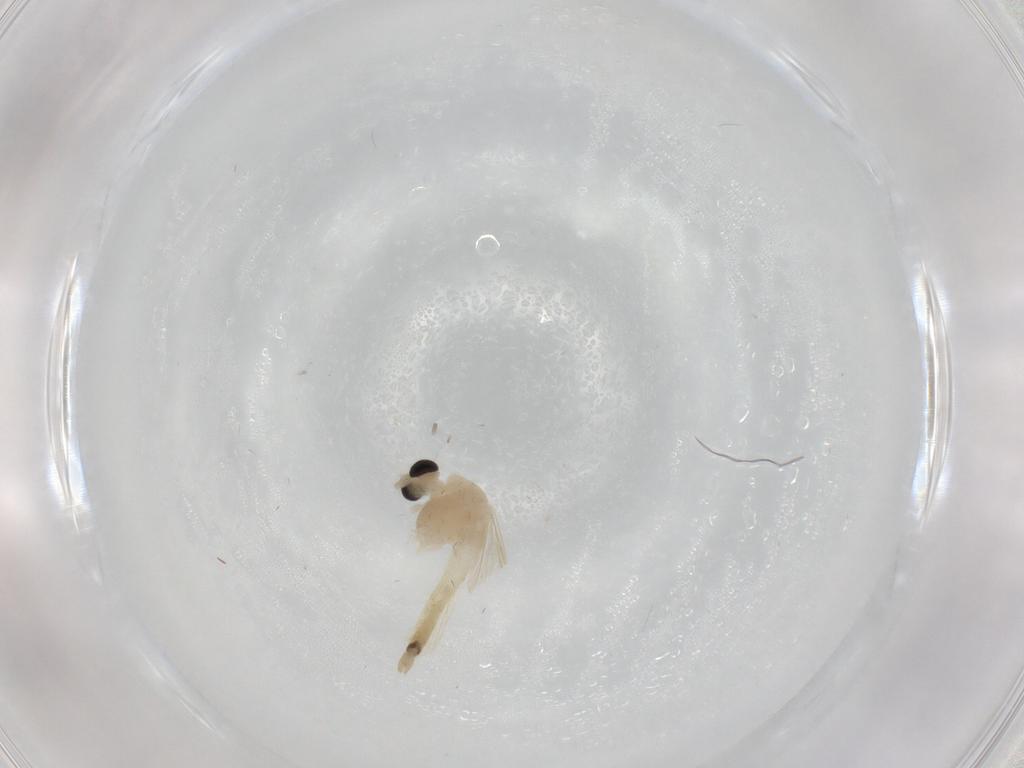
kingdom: Animalia
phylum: Arthropoda
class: Insecta
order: Diptera
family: Chironomidae
